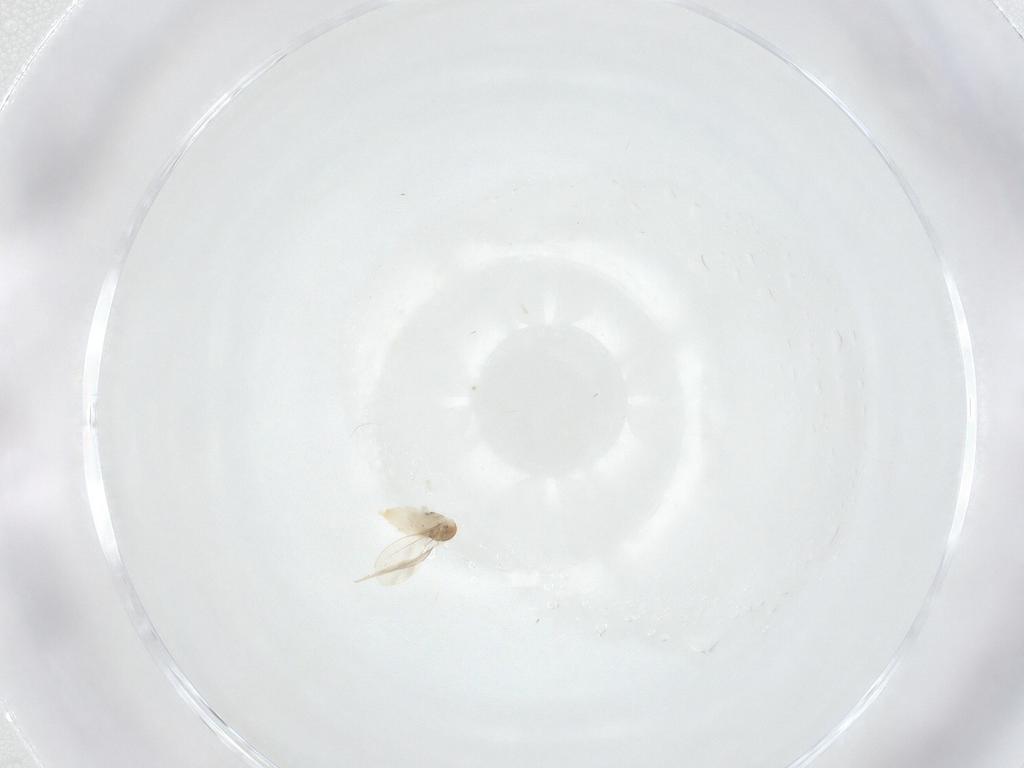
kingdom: Animalia
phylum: Arthropoda
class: Insecta
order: Diptera
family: Cecidomyiidae
